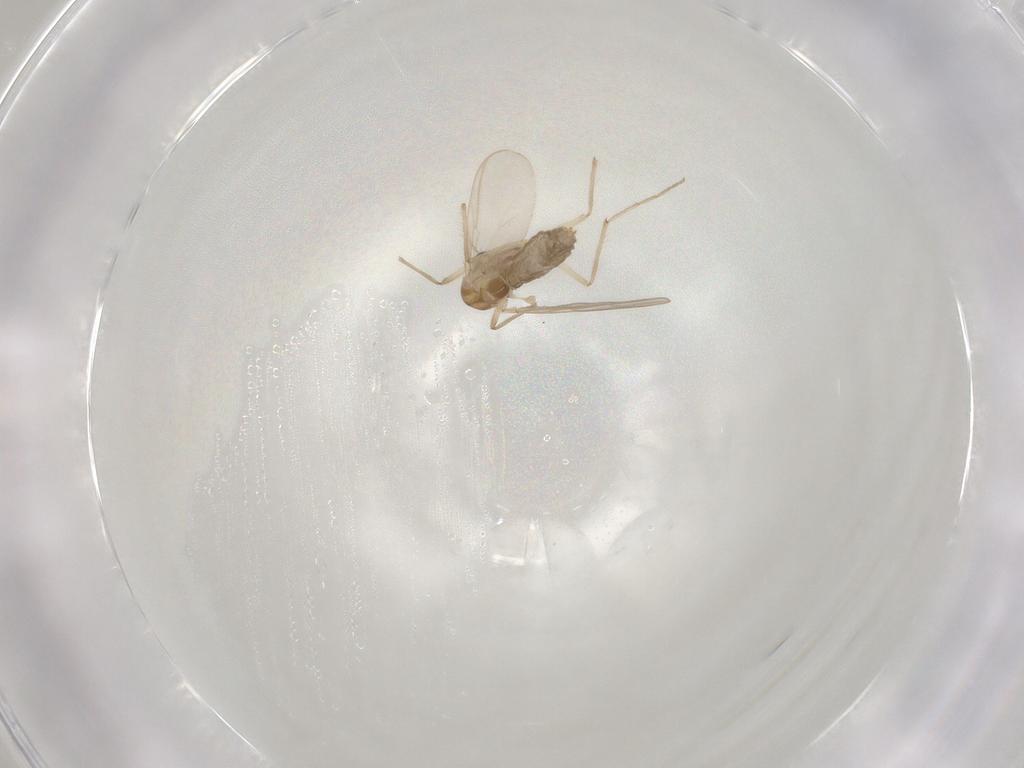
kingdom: Animalia
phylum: Arthropoda
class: Insecta
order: Diptera
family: Chironomidae
